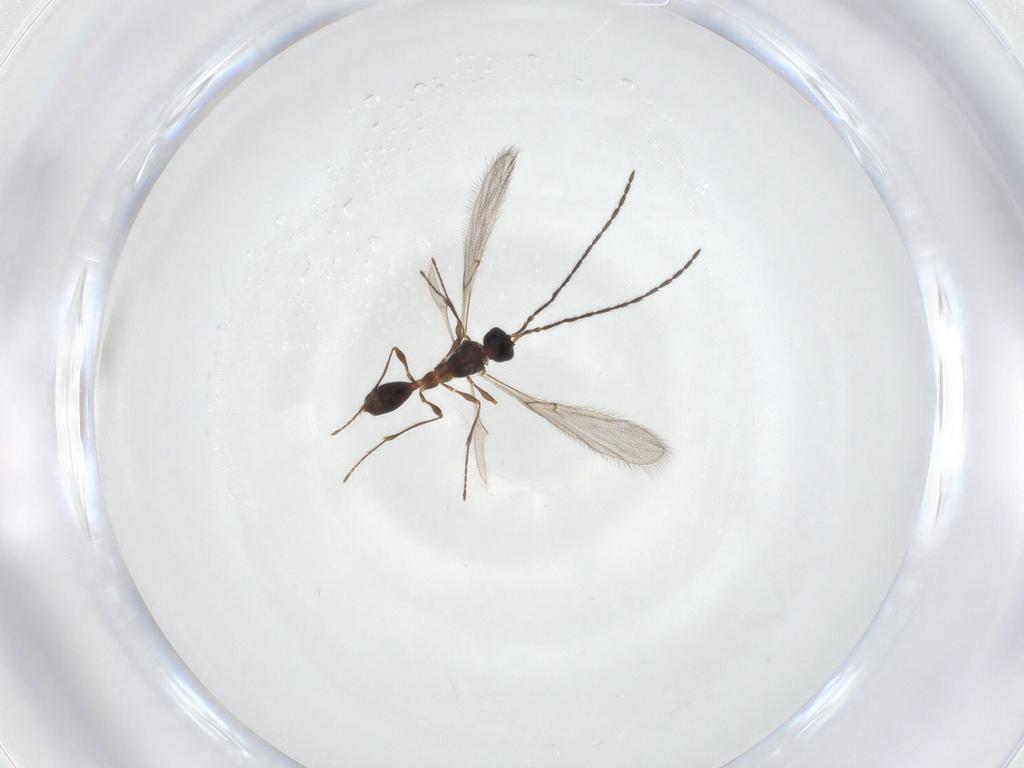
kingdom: Animalia
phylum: Arthropoda
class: Insecta
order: Hymenoptera
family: Diapriidae
